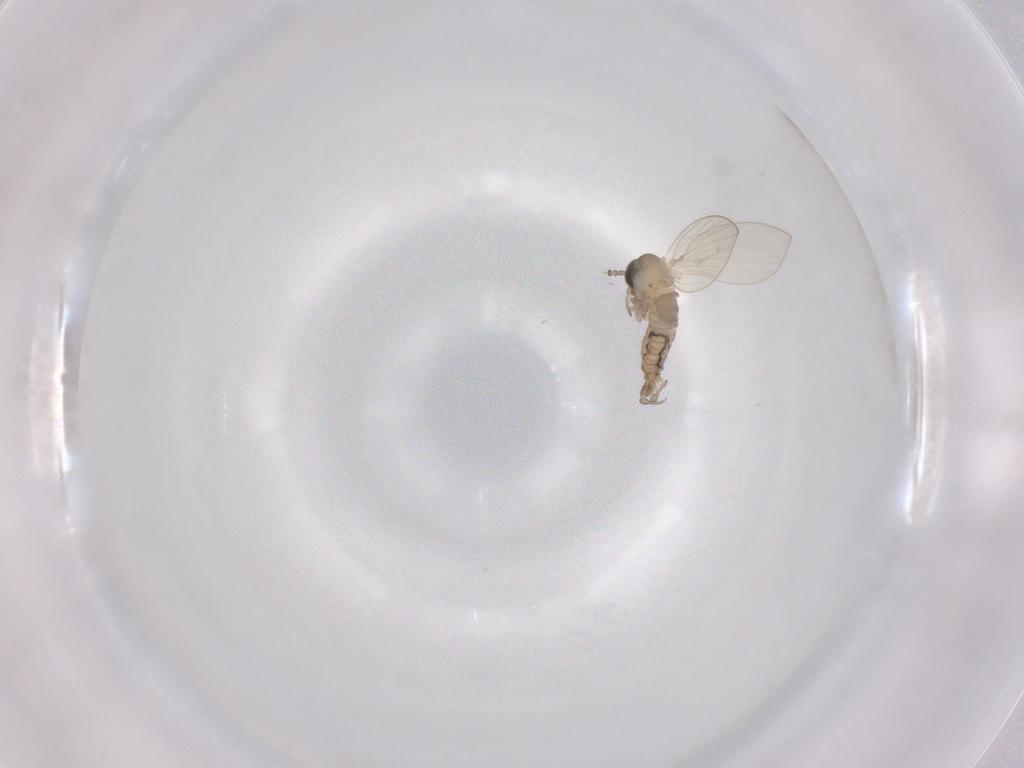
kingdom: Animalia
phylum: Arthropoda
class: Insecta
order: Diptera
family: Psychodidae
